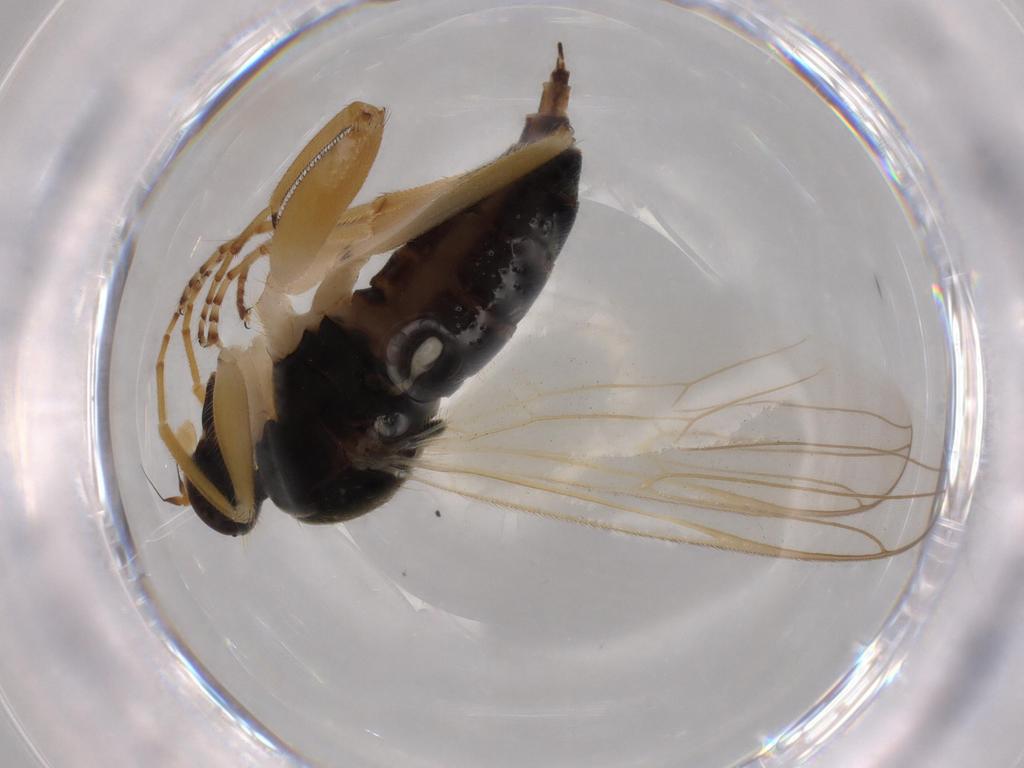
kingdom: Animalia
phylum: Arthropoda
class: Insecta
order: Diptera
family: Hybotidae
